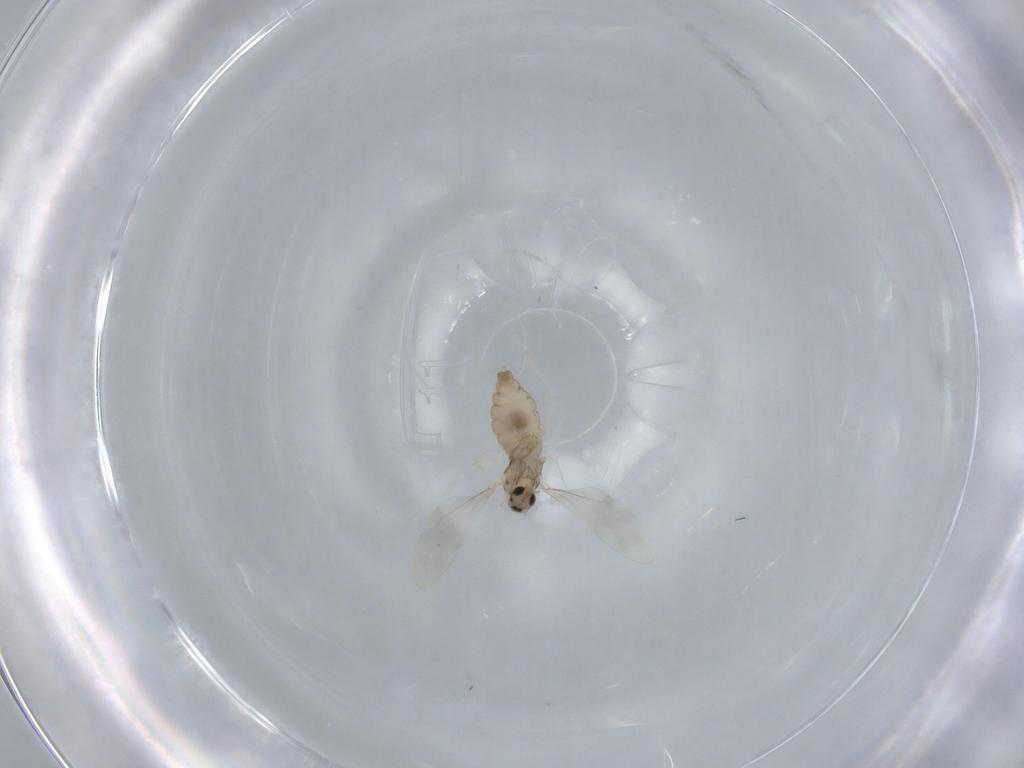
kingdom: Animalia
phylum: Arthropoda
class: Insecta
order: Diptera
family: Cecidomyiidae
